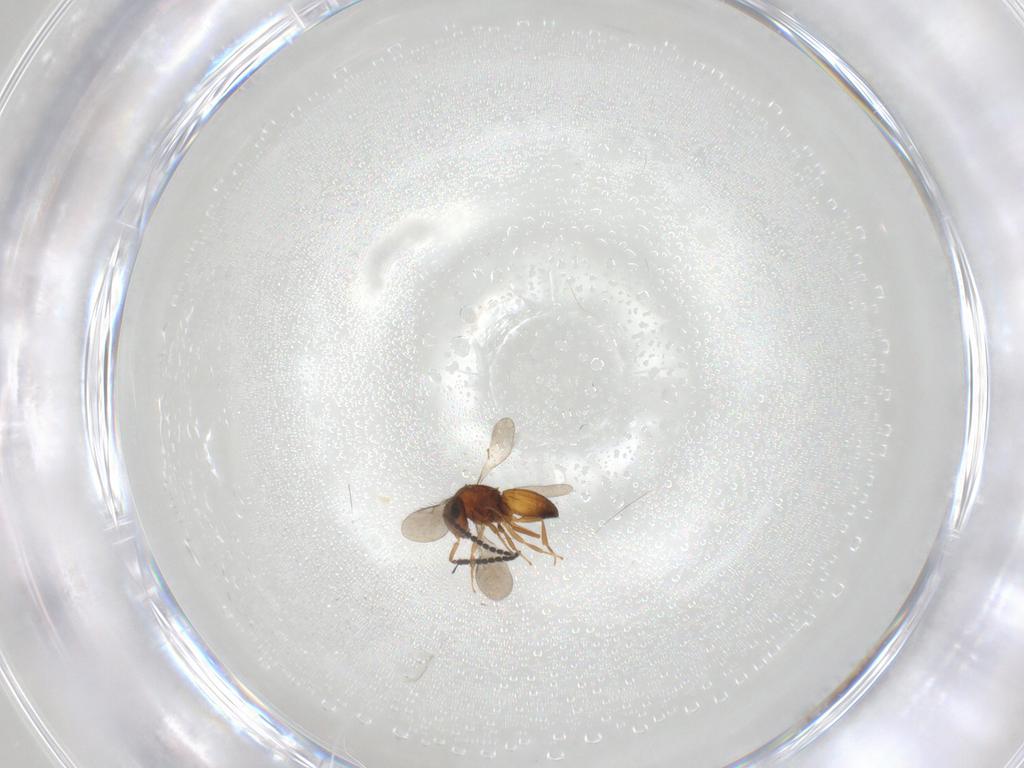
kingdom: Animalia
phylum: Arthropoda
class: Insecta
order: Hymenoptera
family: Scelionidae
